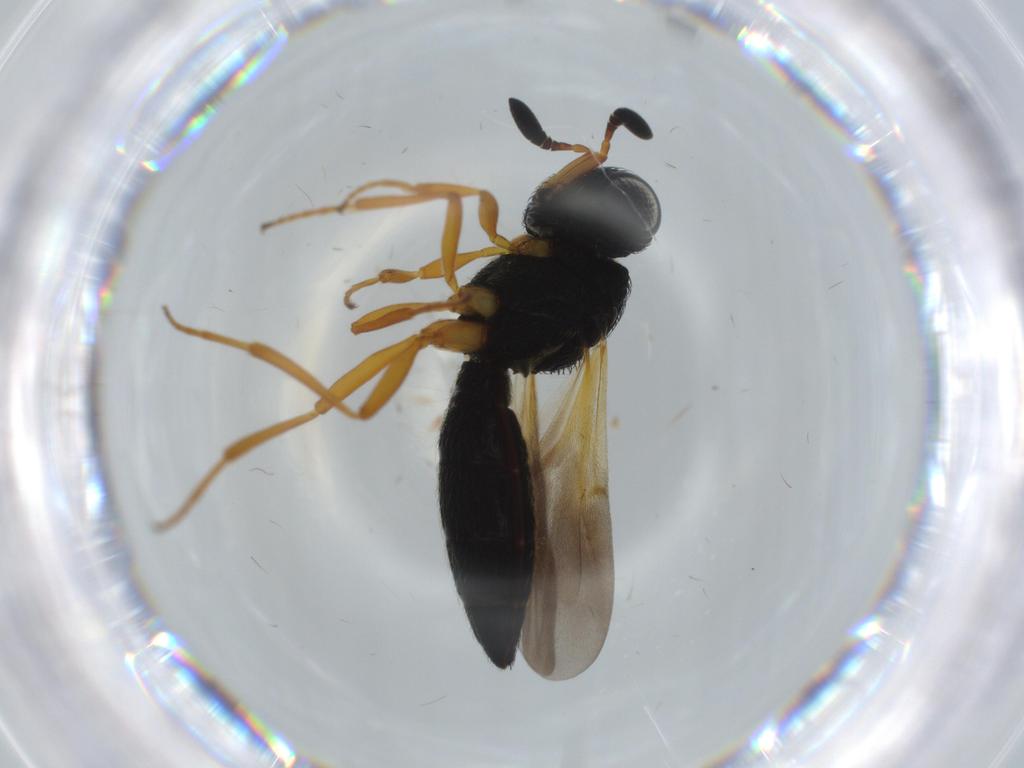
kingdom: Animalia
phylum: Arthropoda
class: Insecta
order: Hymenoptera
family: Scelionidae
